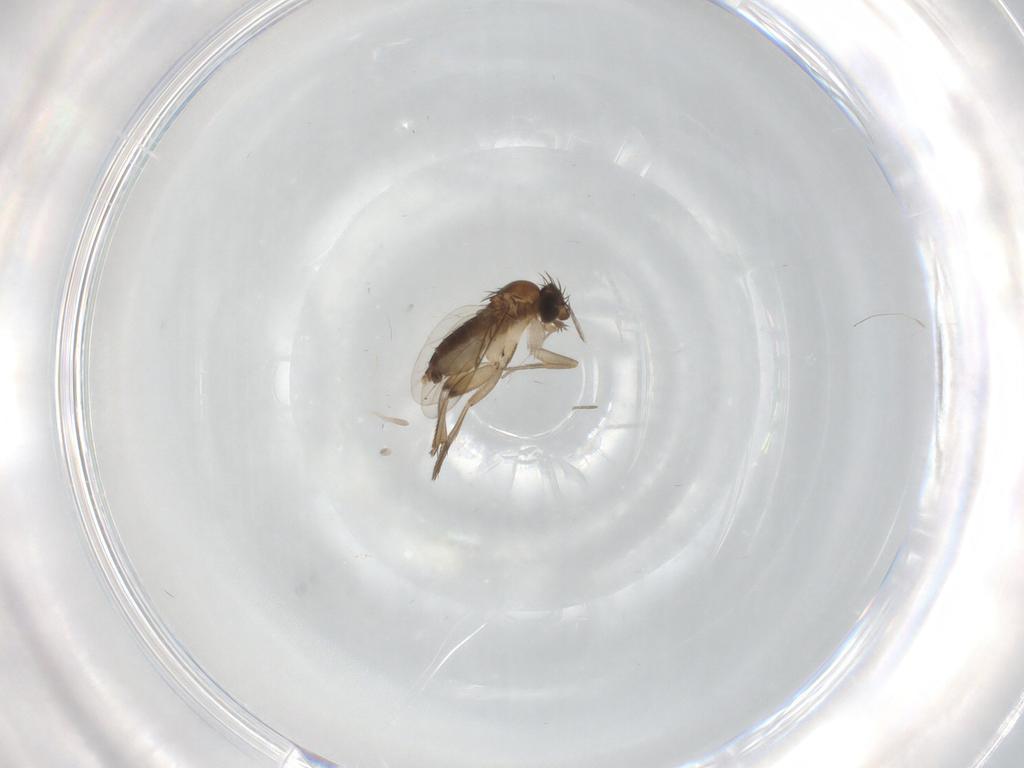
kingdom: Animalia
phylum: Arthropoda
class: Insecta
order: Diptera
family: Phoridae
